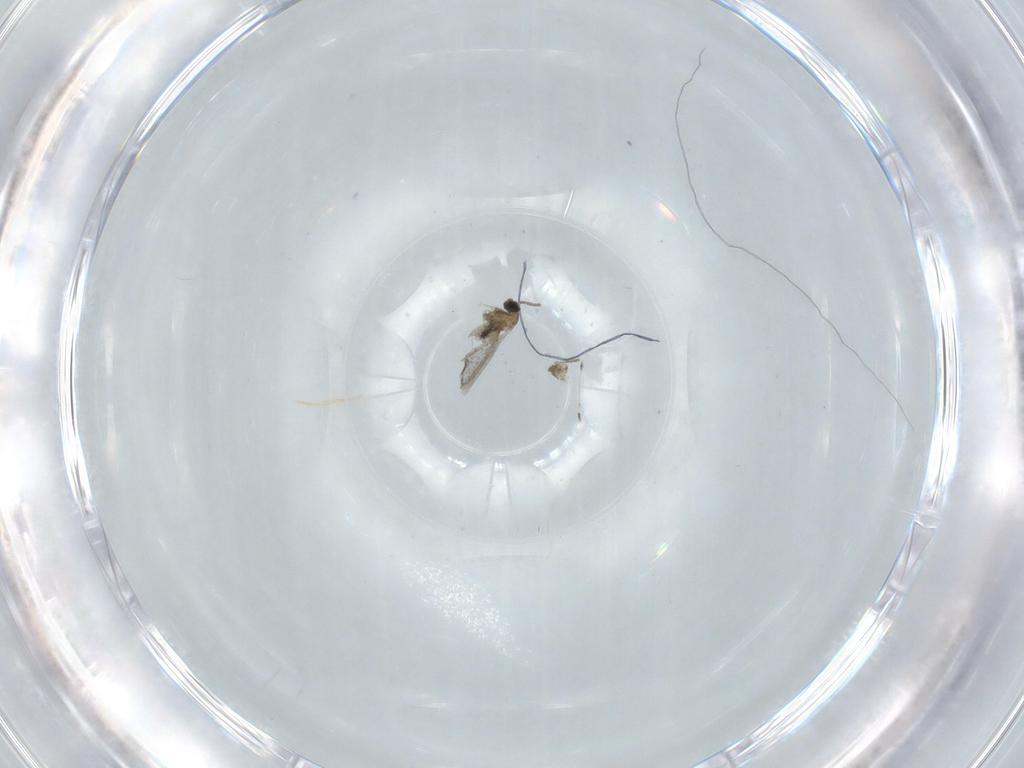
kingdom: Animalia
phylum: Arthropoda
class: Insecta
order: Diptera
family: Cecidomyiidae
